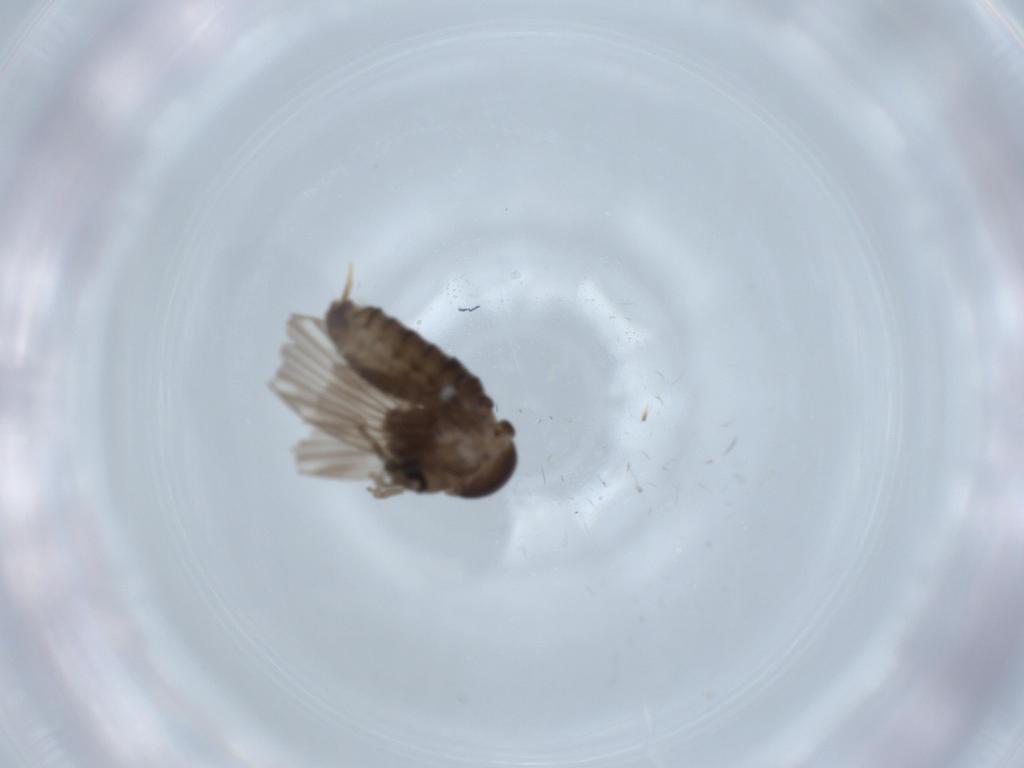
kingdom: Animalia
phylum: Arthropoda
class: Insecta
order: Diptera
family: Psychodidae
